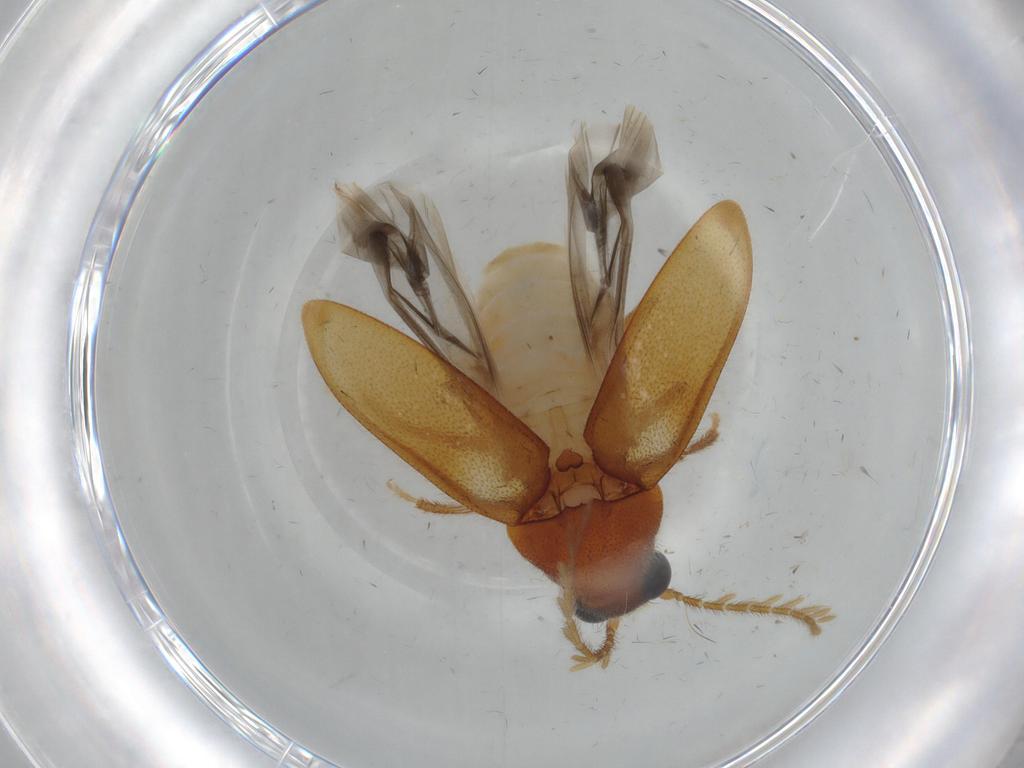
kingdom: Animalia
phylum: Arthropoda
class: Insecta
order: Coleoptera
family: Ptilodactylidae
